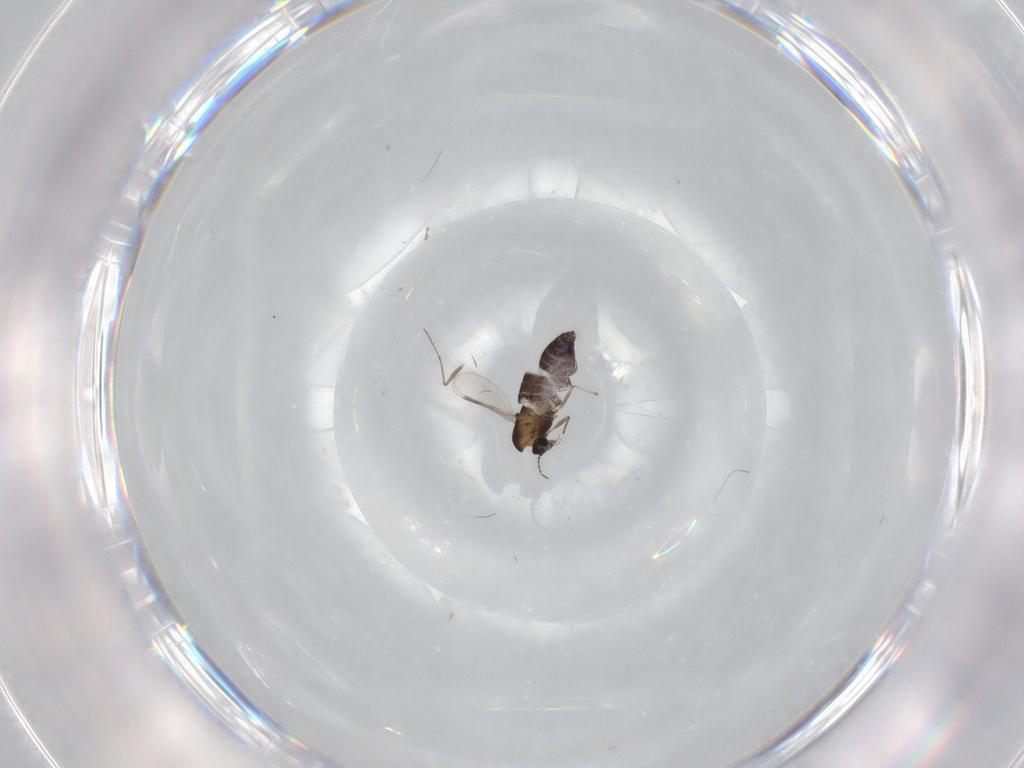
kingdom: Animalia
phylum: Arthropoda
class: Insecta
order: Diptera
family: Chironomidae
